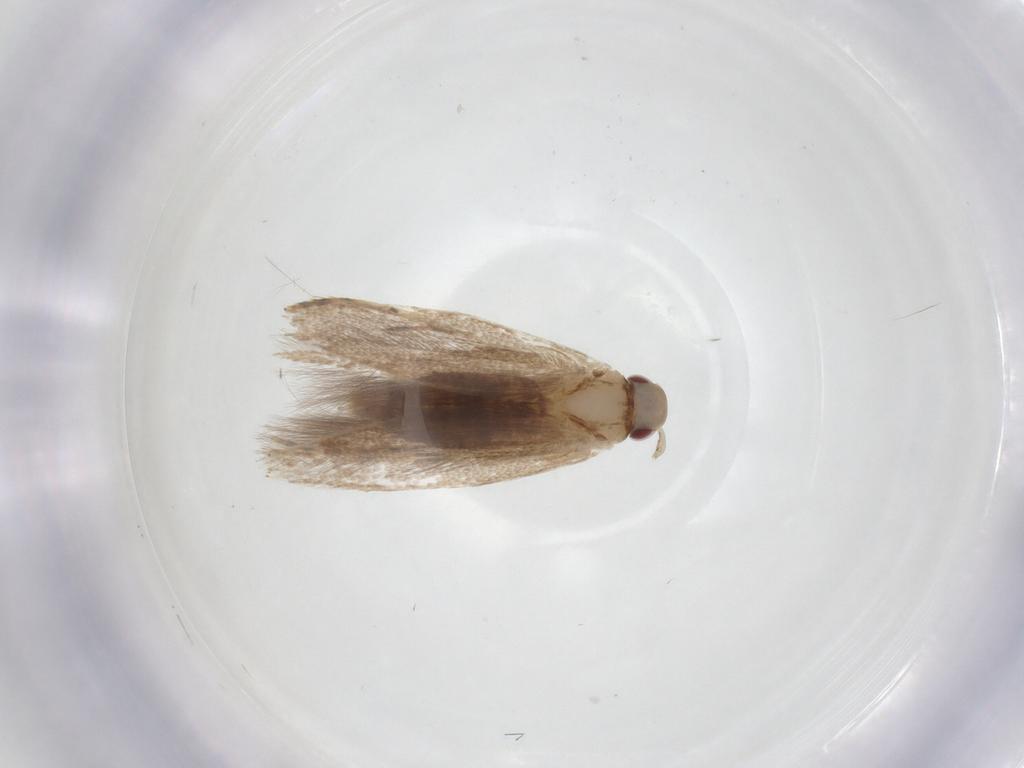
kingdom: Animalia
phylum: Arthropoda
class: Insecta
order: Lepidoptera
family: Cosmopterigidae
